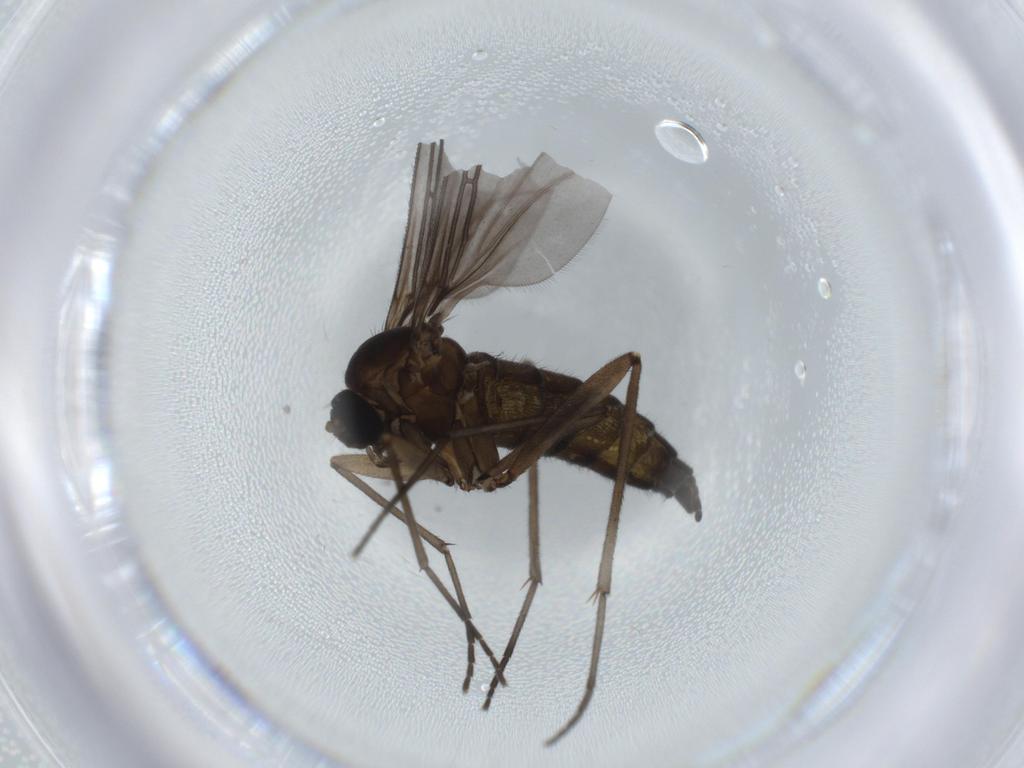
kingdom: Animalia
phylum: Arthropoda
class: Insecta
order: Diptera
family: Sciaridae
